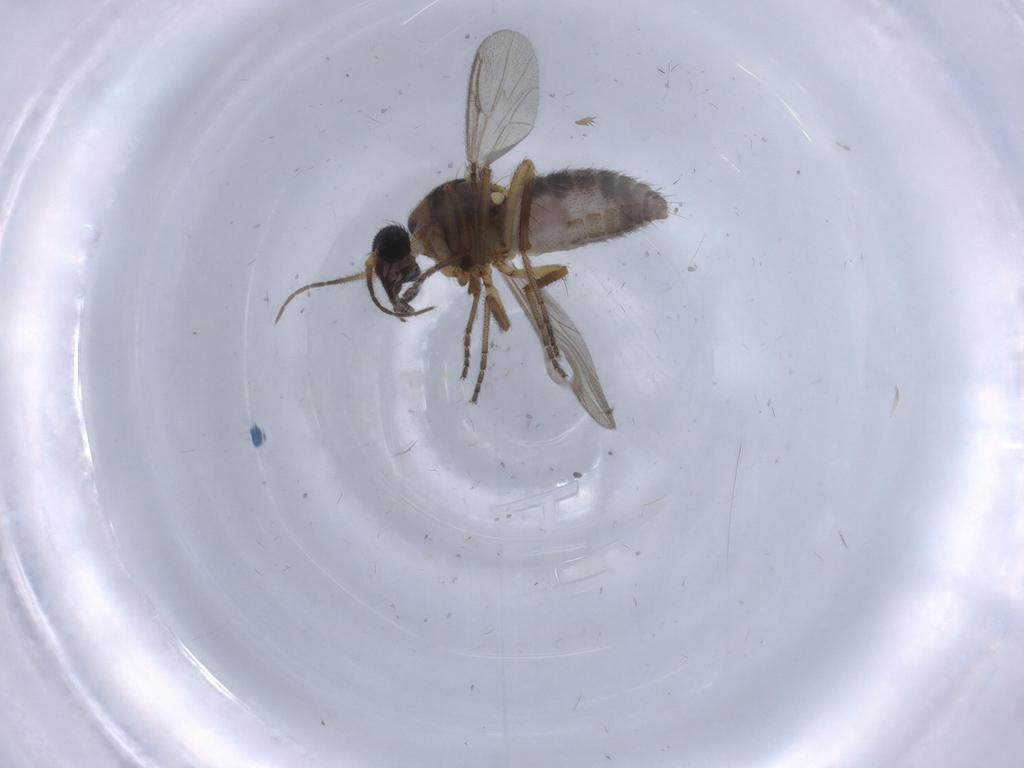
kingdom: Animalia
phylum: Arthropoda
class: Insecta
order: Diptera
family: Ceratopogonidae
